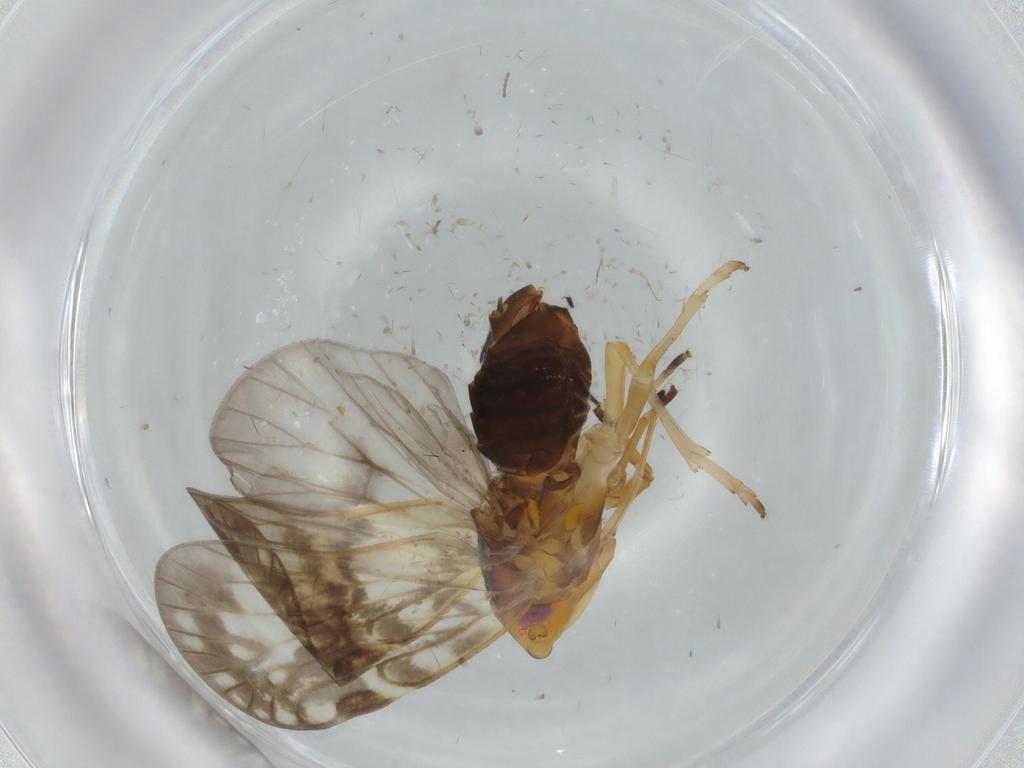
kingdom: Animalia
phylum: Arthropoda
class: Insecta
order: Hemiptera
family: Cixiidae
